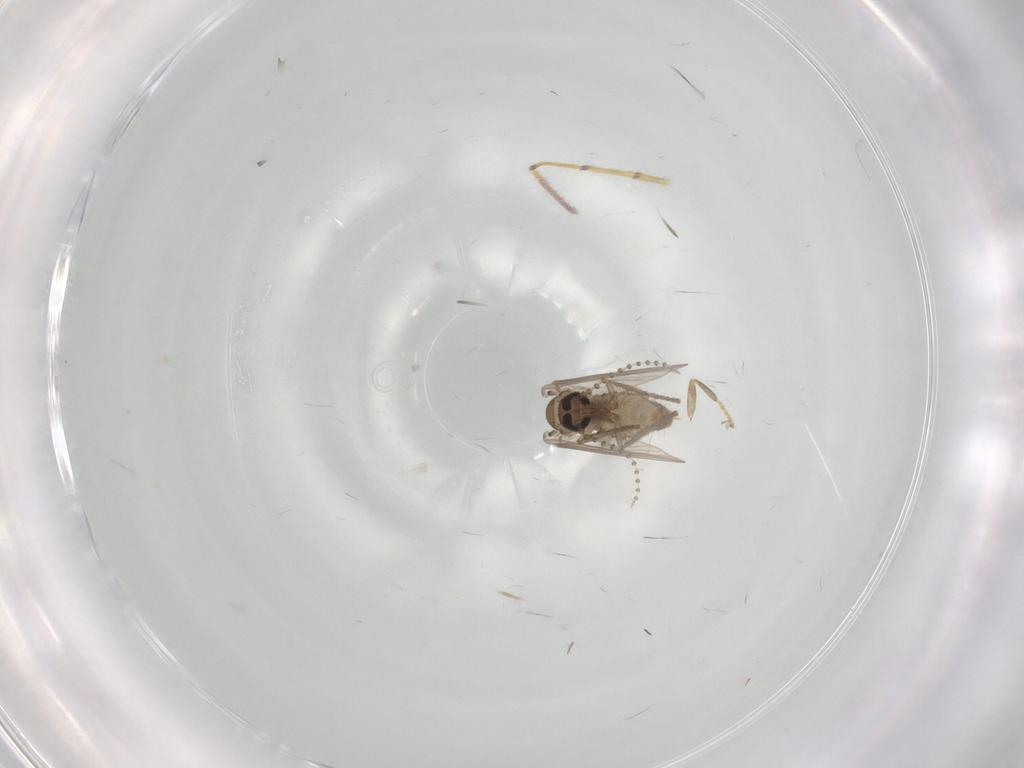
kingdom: Animalia
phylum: Arthropoda
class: Insecta
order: Diptera
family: Scatopsidae
